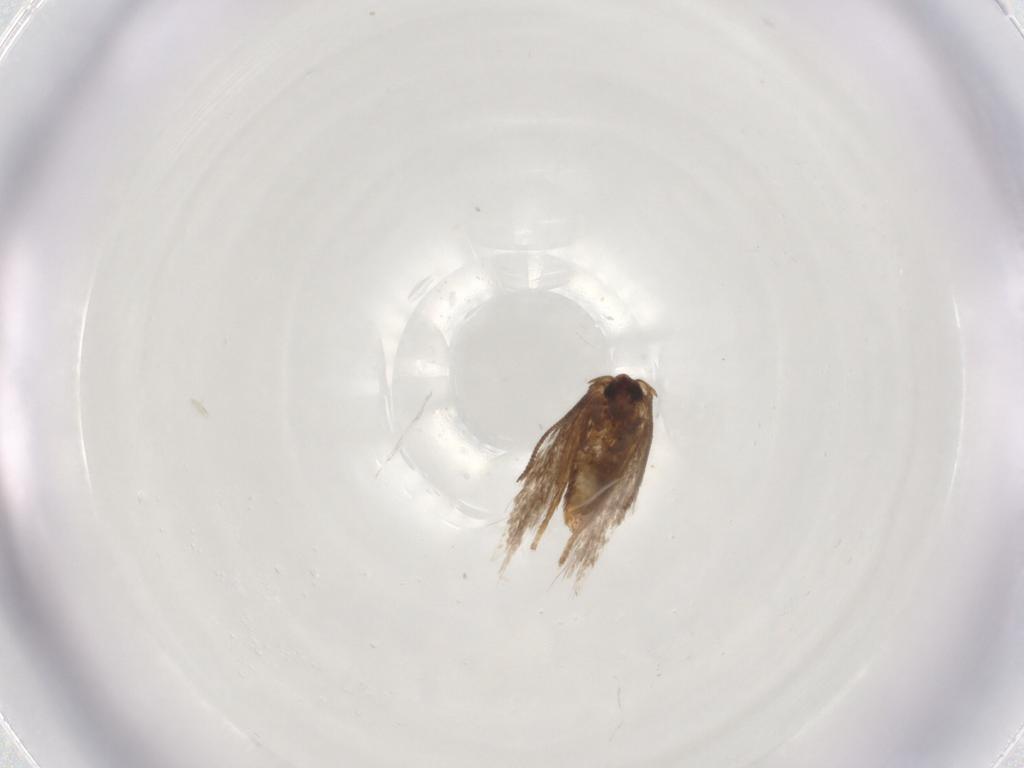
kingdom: Animalia
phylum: Arthropoda
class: Insecta
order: Lepidoptera
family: Nepticulidae
